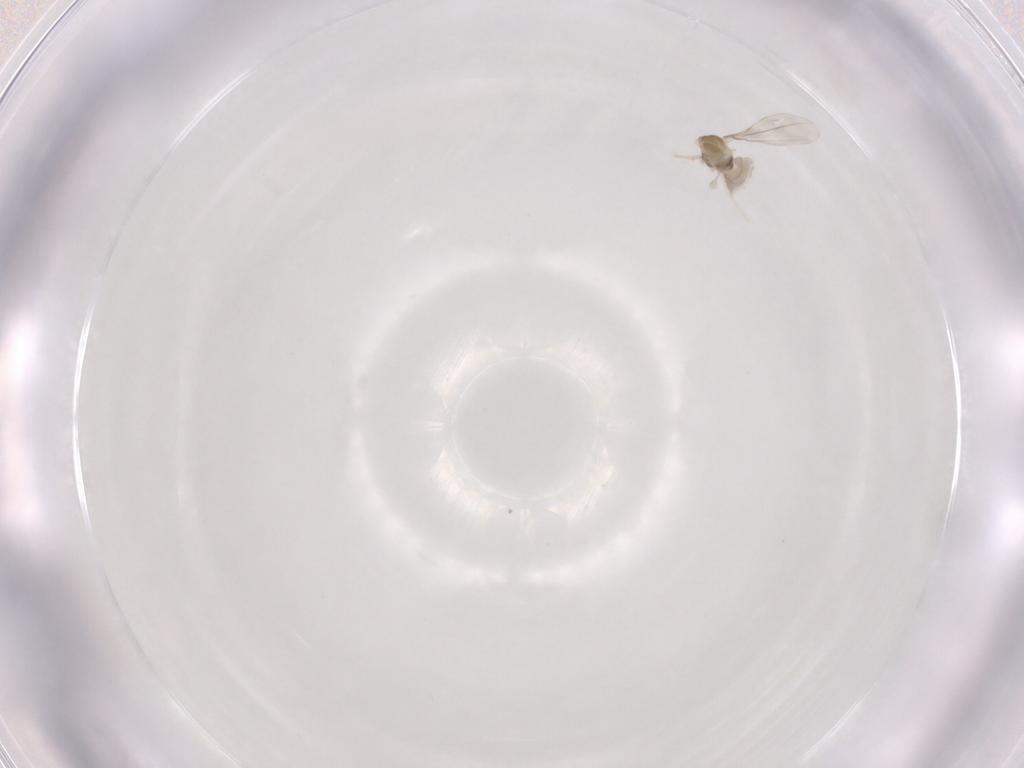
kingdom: Animalia
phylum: Arthropoda
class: Insecta
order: Diptera
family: Cecidomyiidae
